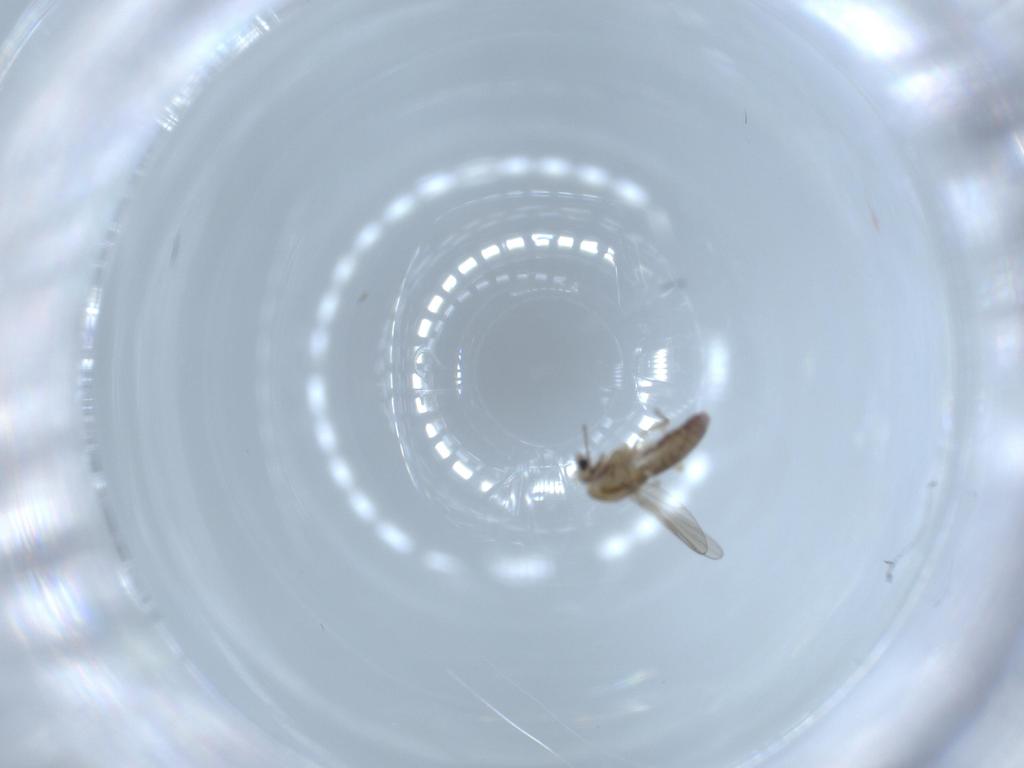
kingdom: Animalia
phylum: Arthropoda
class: Insecta
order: Diptera
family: Chironomidae
